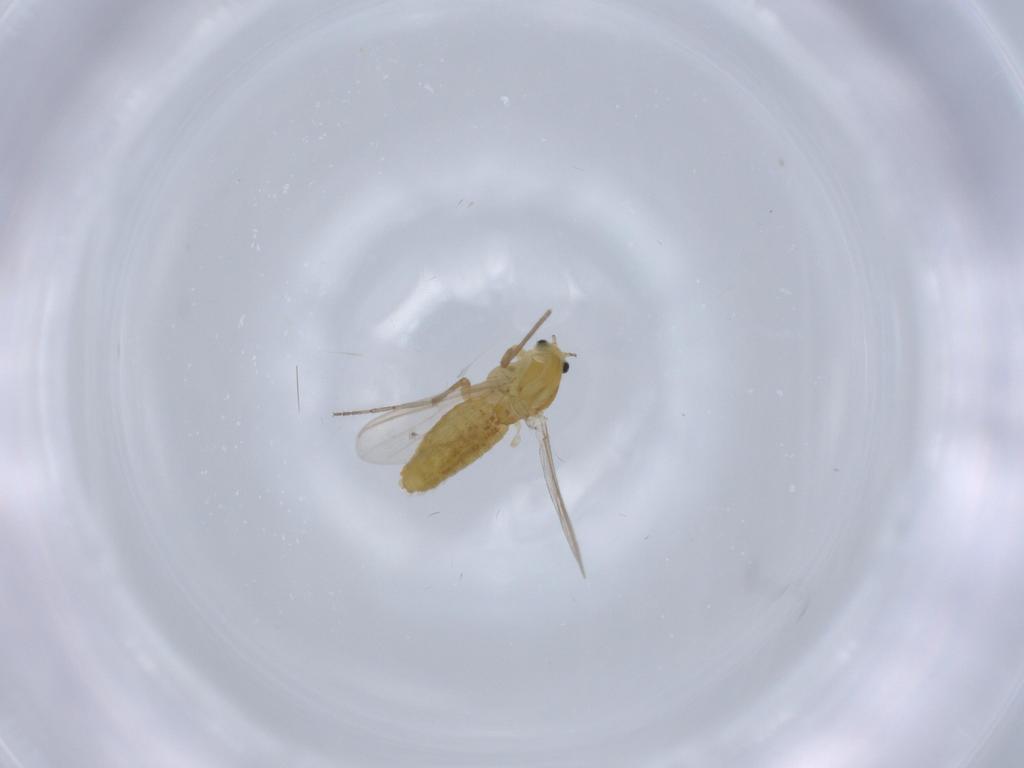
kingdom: Animalia
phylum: Arthropoda
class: Insecta
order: Diptera
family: Chironomidae
